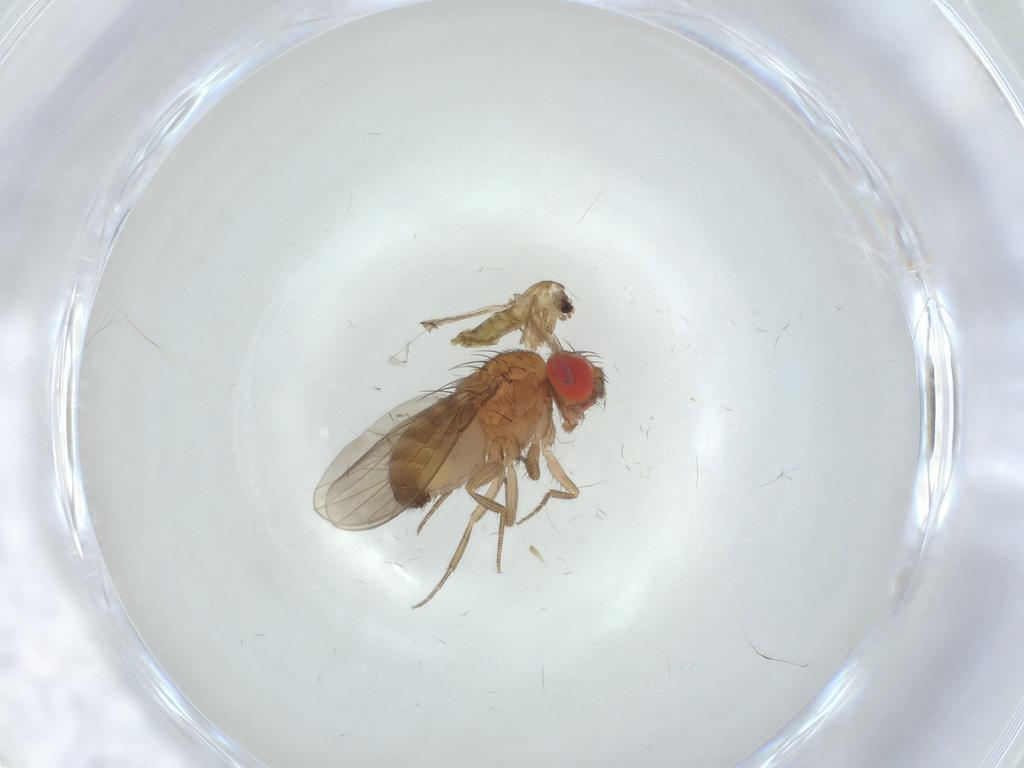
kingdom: Animalia
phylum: Arthropoda
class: Insecta
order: Diptera
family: Drosophilidae
